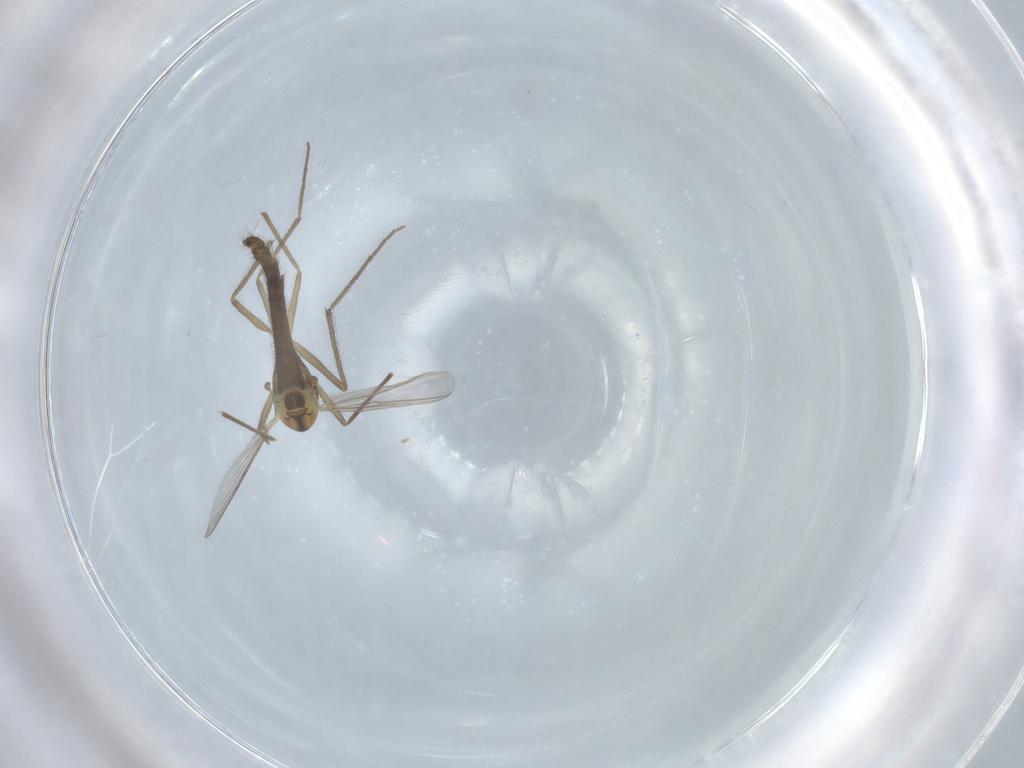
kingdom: Animalia
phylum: Arthropoda
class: Insecta
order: Diptera
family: Chironomidae
